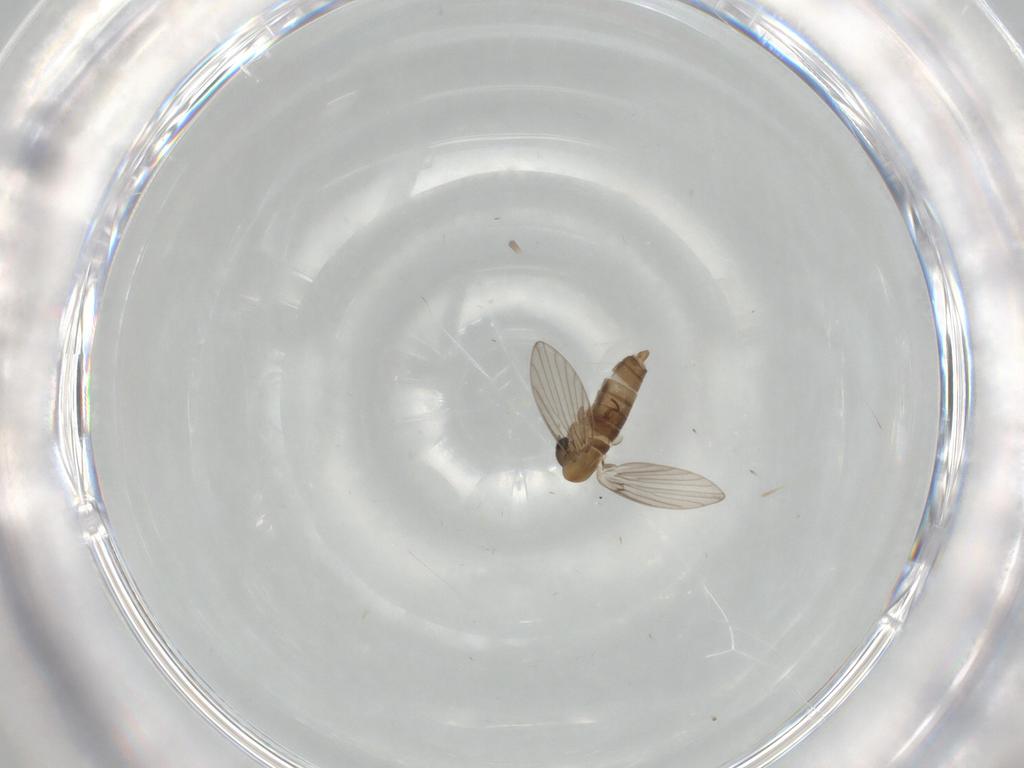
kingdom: Animalia
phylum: Arthropoda
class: Insecta
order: Diptera
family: Psychodidae
